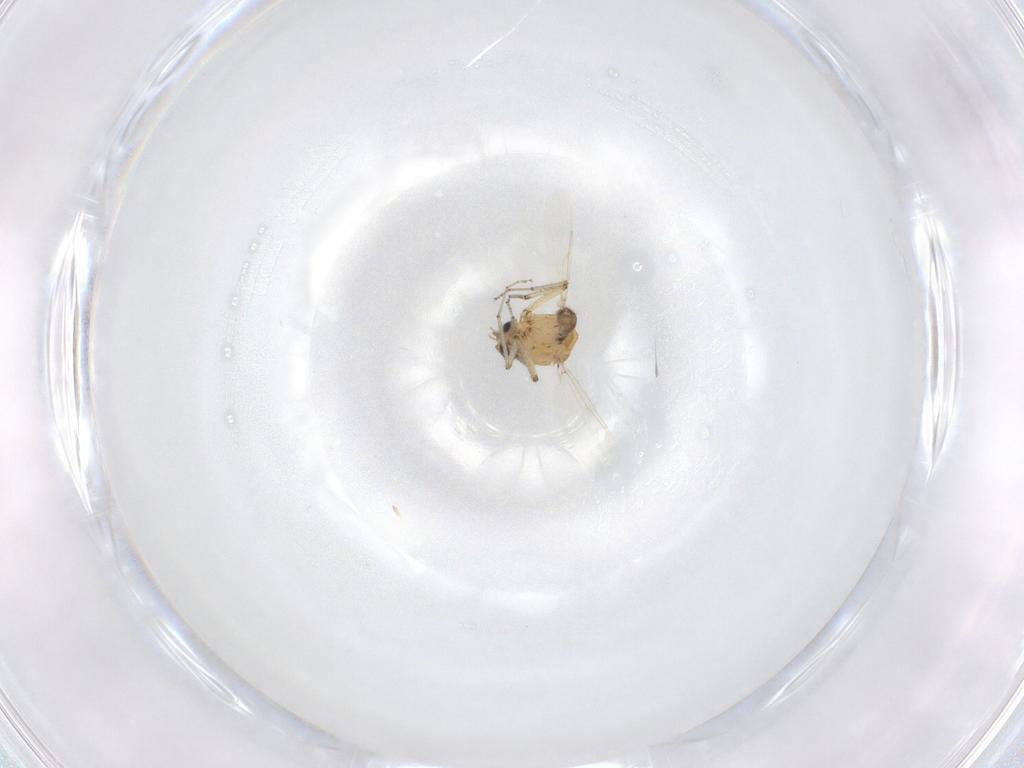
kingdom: Animalia
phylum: Arthropoda
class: Insecta
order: Diptera
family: Ceratopogonidae
